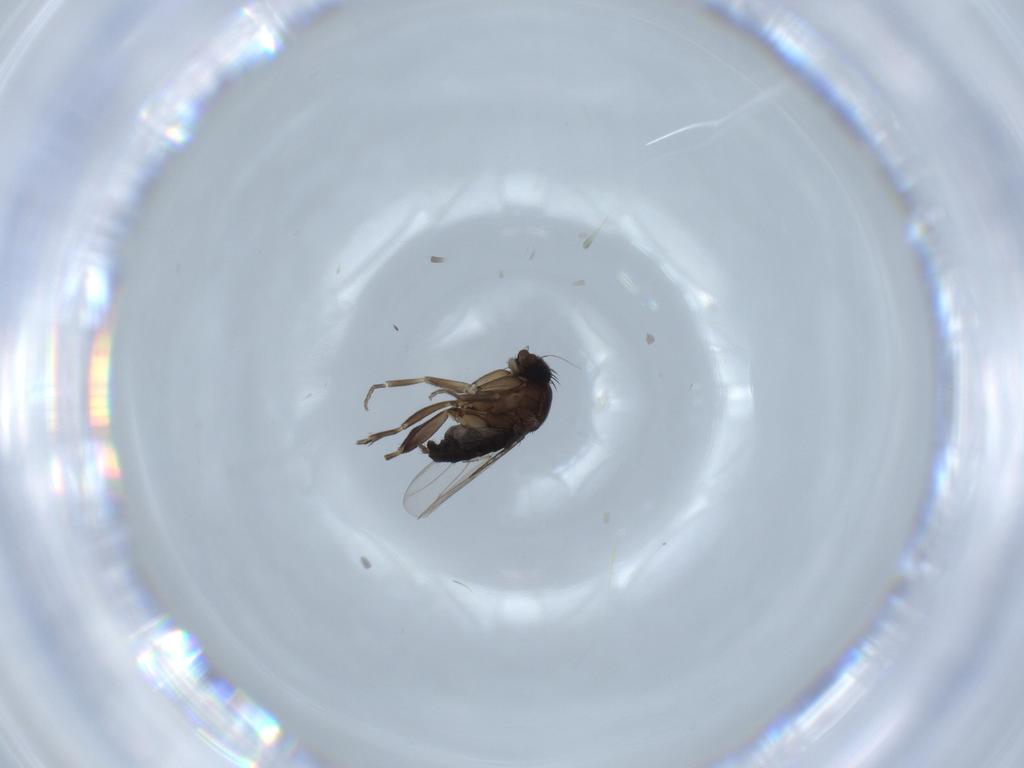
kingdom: Animalia
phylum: Arthropoda
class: Insecta
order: Diptera
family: Phoridae
